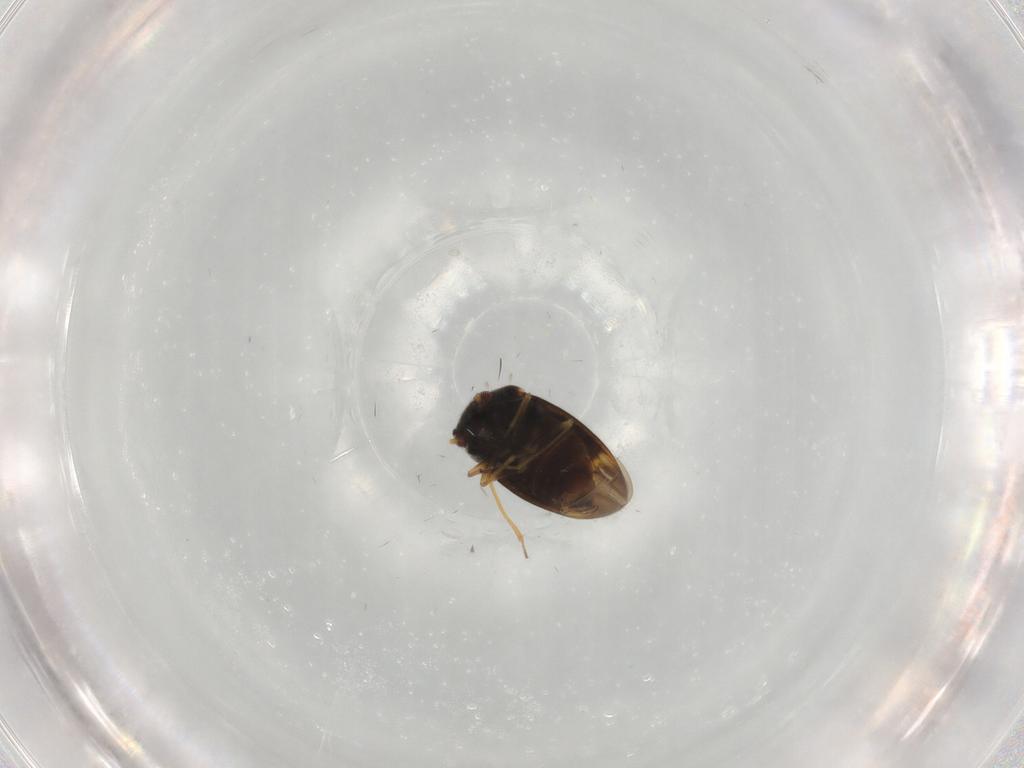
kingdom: Animalia
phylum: Arthropoda
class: Insecta
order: Hemiptera
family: Schizopteridae
